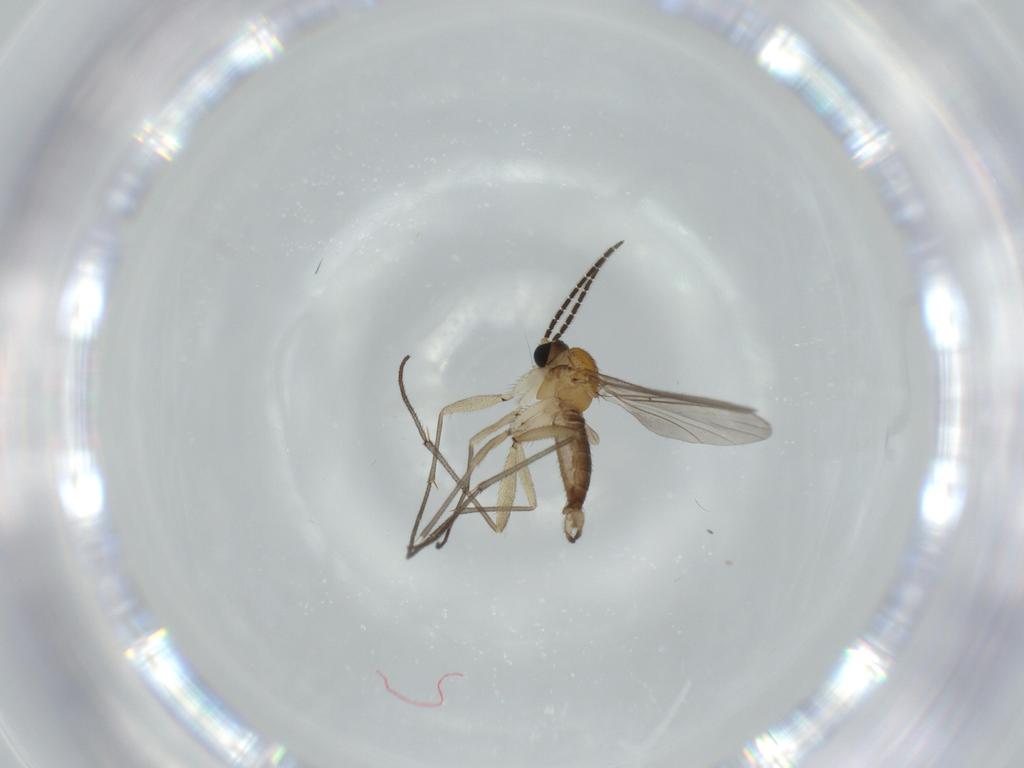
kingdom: Animalia
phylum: Arthropoda
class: Insecta
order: Diptera
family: Sciaridae
